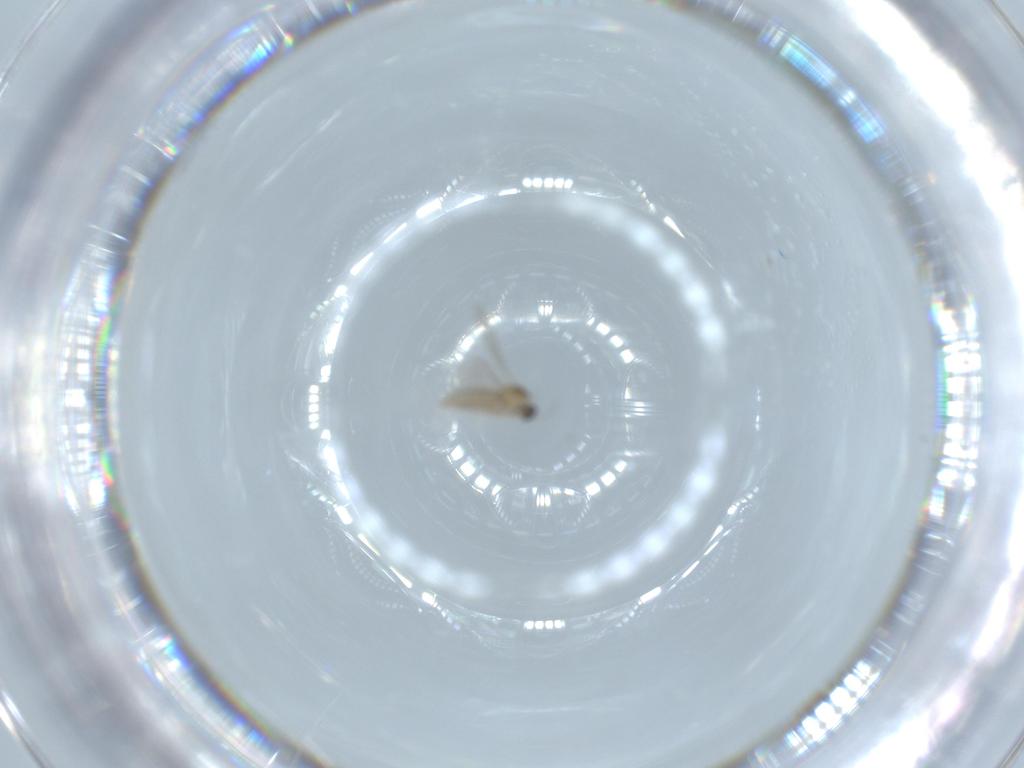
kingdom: Animalia
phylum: Arthropoda
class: Insecta
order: Diptera
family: Cecidomyiidae
